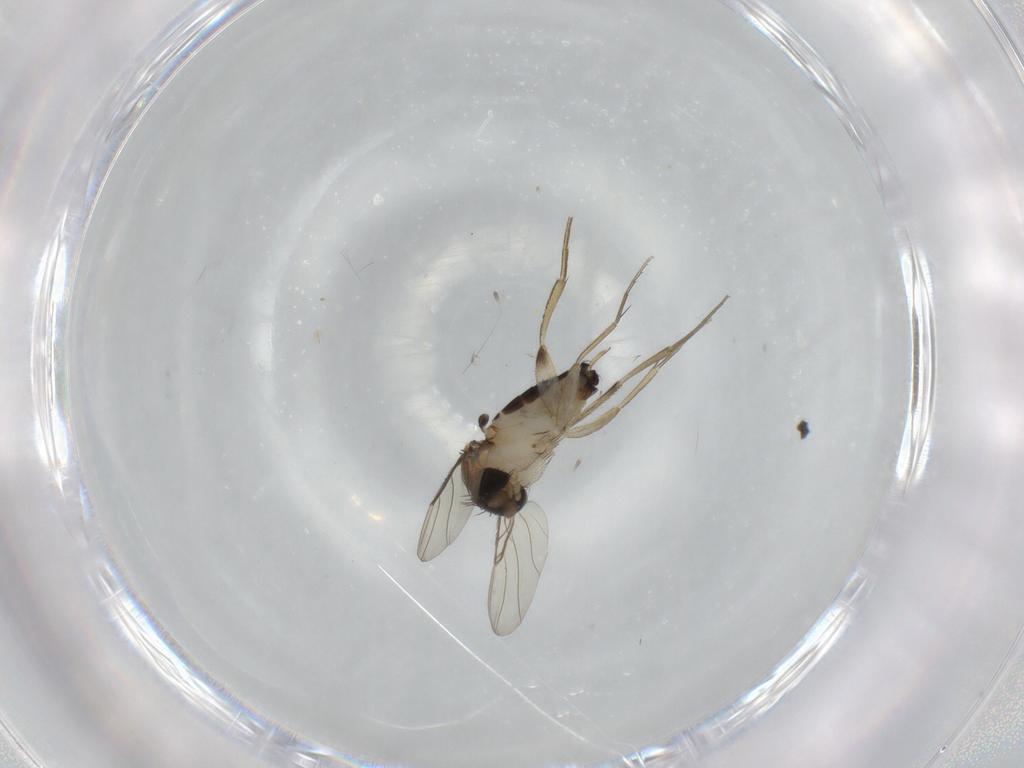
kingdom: Animalia
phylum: Arthropoda
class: Insecta
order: Diptera
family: Phoridae
